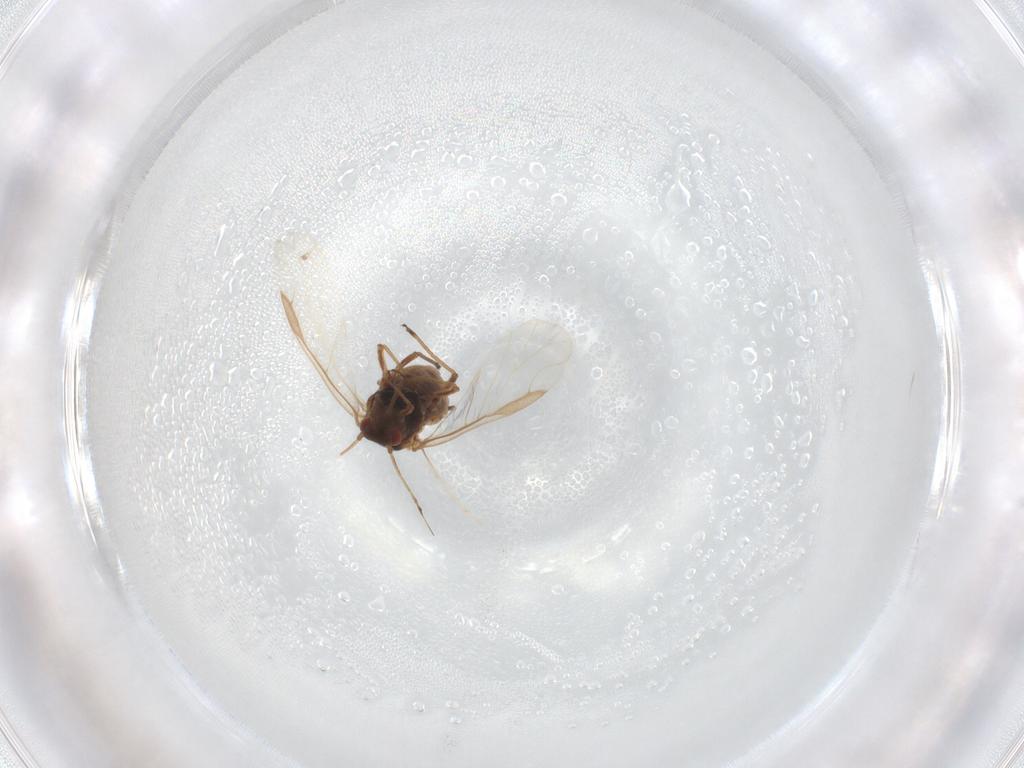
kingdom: Animalia
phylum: Arthropoda
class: Insecta
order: Hemiptera
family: Aphididae
